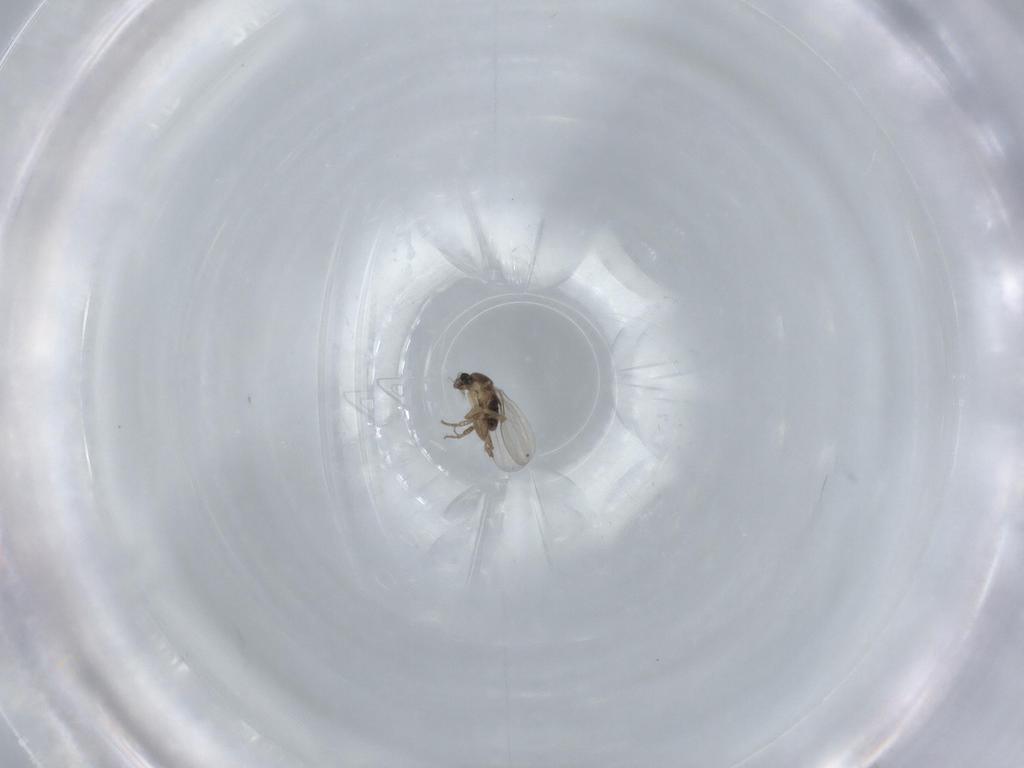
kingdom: Animalia
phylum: Arthropoda
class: Insecta
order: Diptera
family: Phoridae
